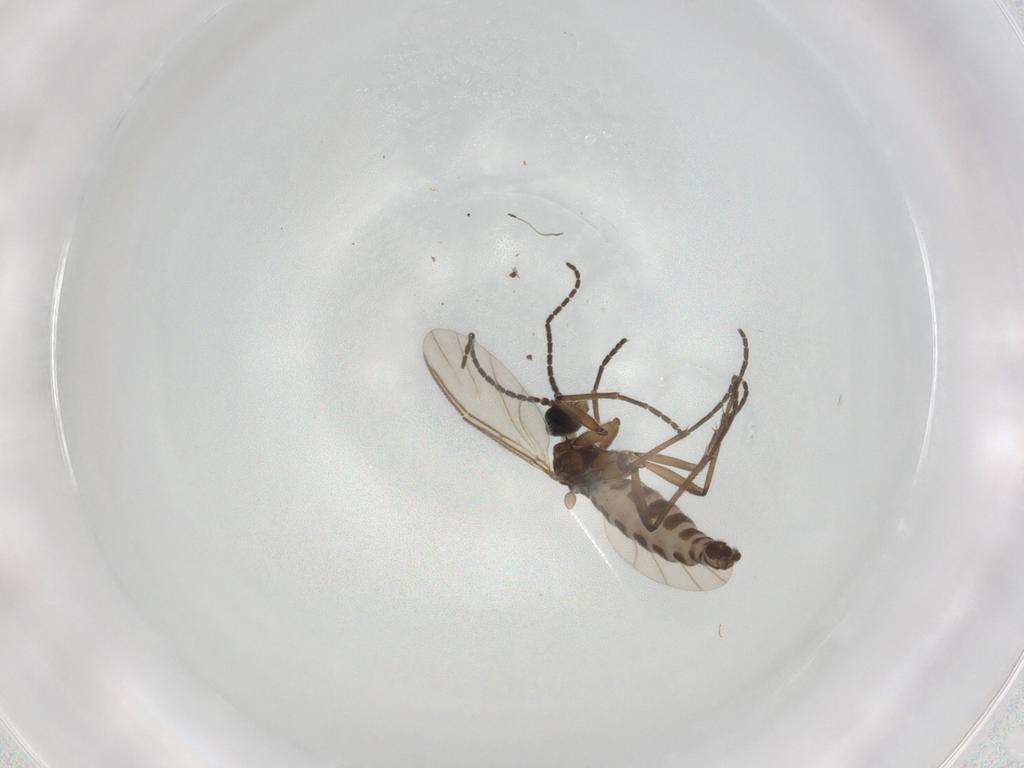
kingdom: Animalia
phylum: Arthropoda
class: Insecta
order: Diptera
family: Sciaridae
